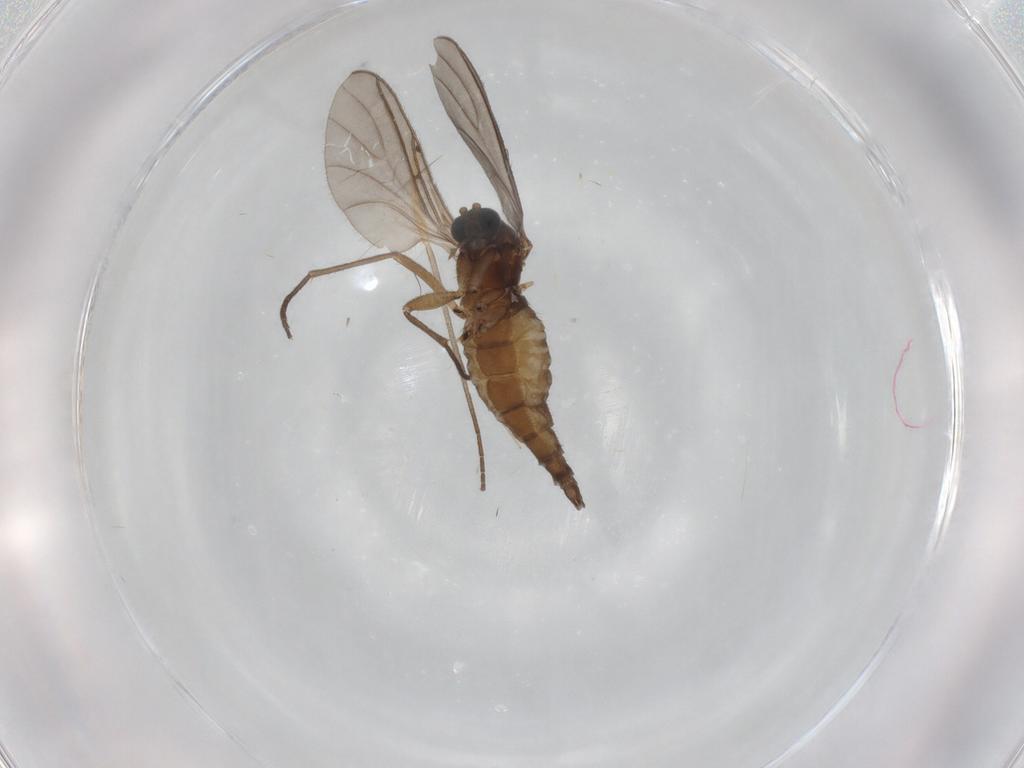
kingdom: Animalia
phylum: Arthropoda
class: Insecta
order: Diptera
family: Sciaridae
